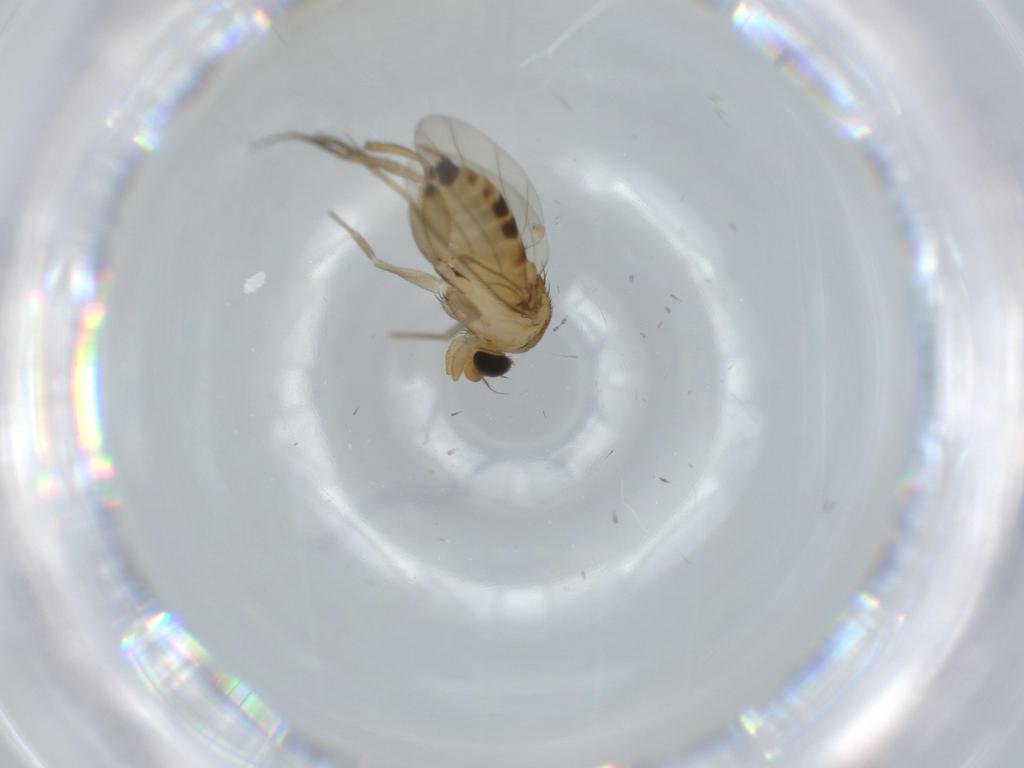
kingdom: Animalia
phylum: Arthropoda
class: Insecta
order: Diptera
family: Phoridae
